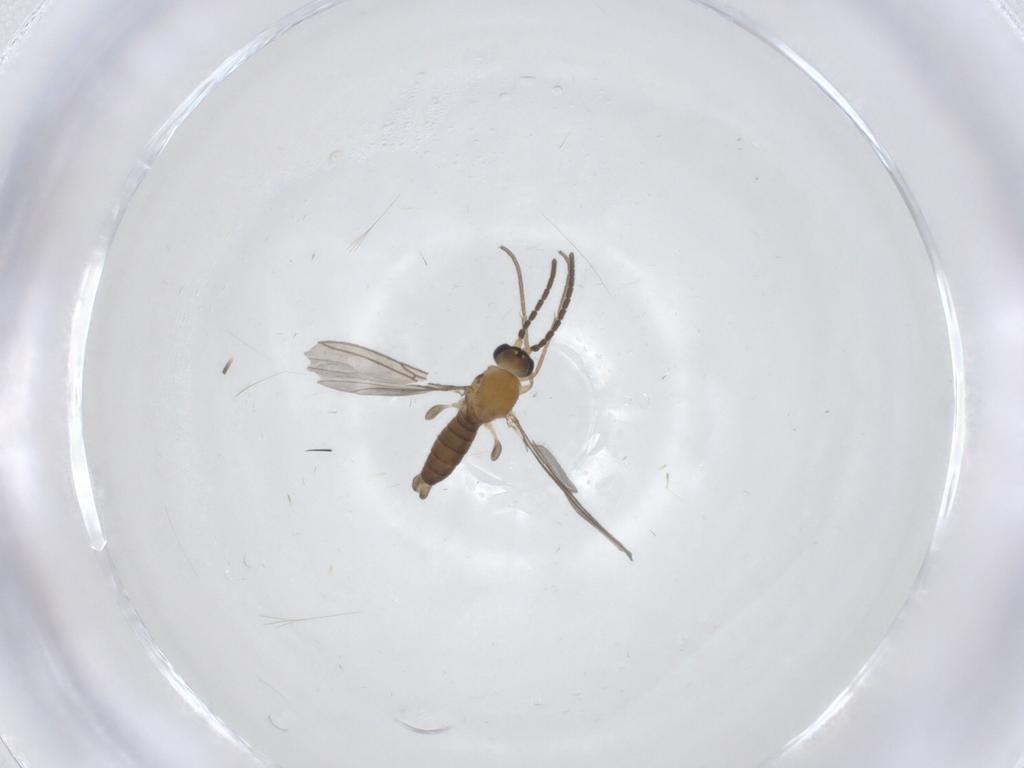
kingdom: Animalia
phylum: Arthropoda
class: Insecta
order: Diptera
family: Sciaridae
